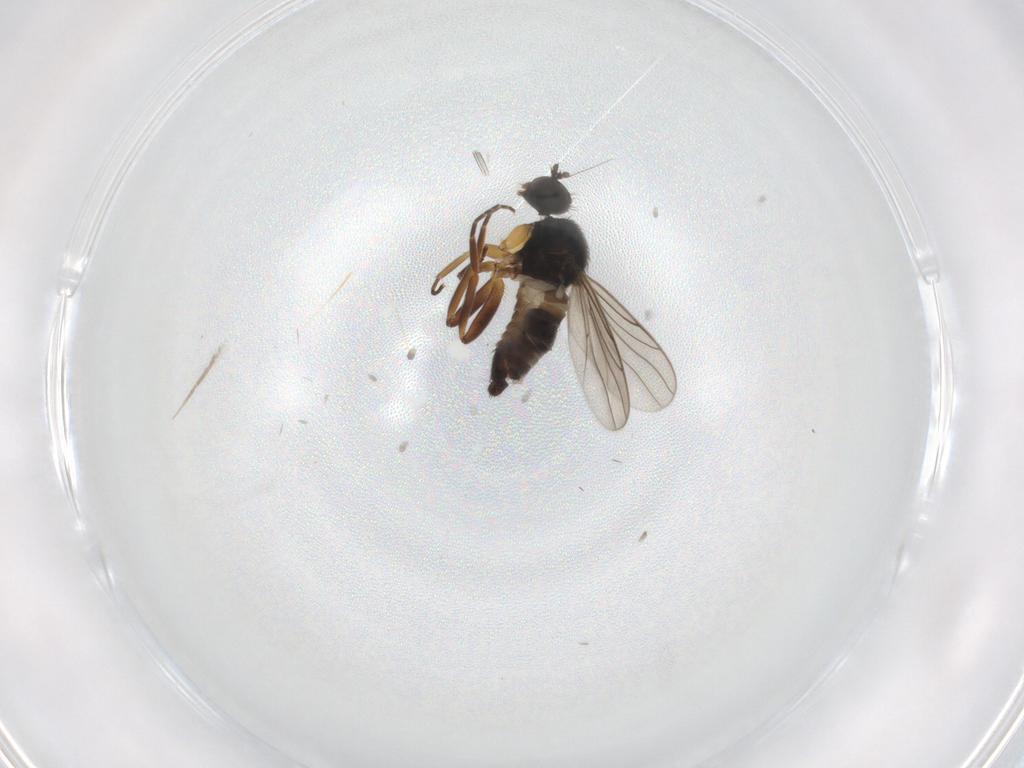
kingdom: Animalia
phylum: Arthropoda
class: Insecta
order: Diptera
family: Hybotidae
